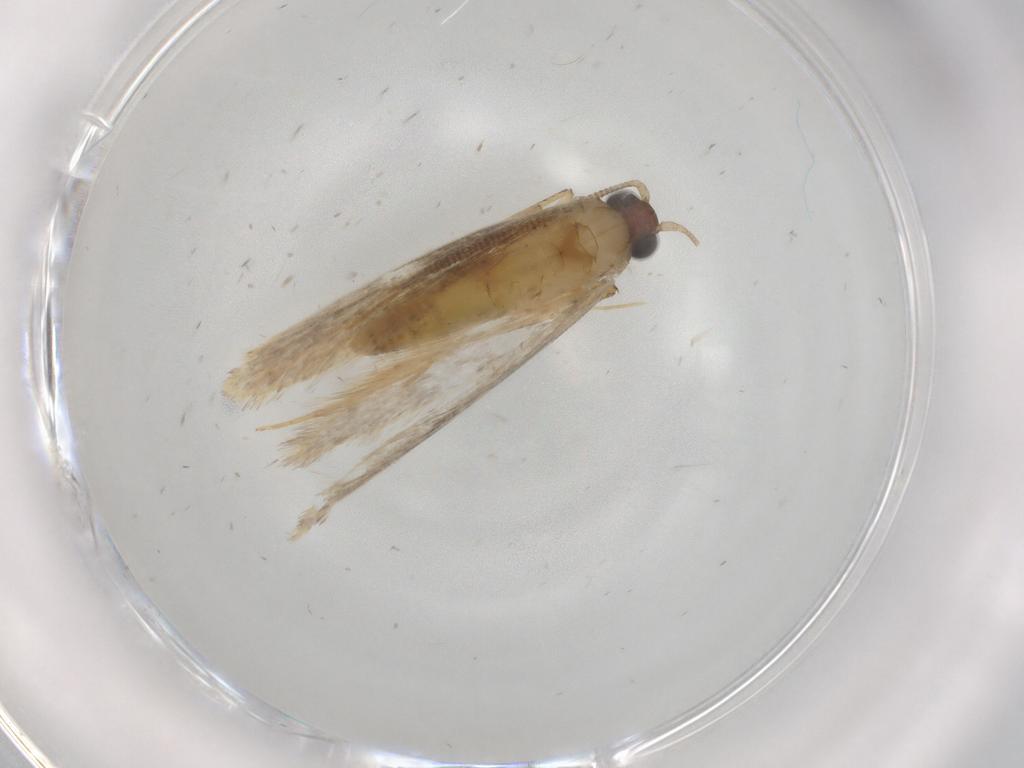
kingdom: Animalia
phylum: Arthropoda
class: Insecta
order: Lepidoptera
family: Tineidae
